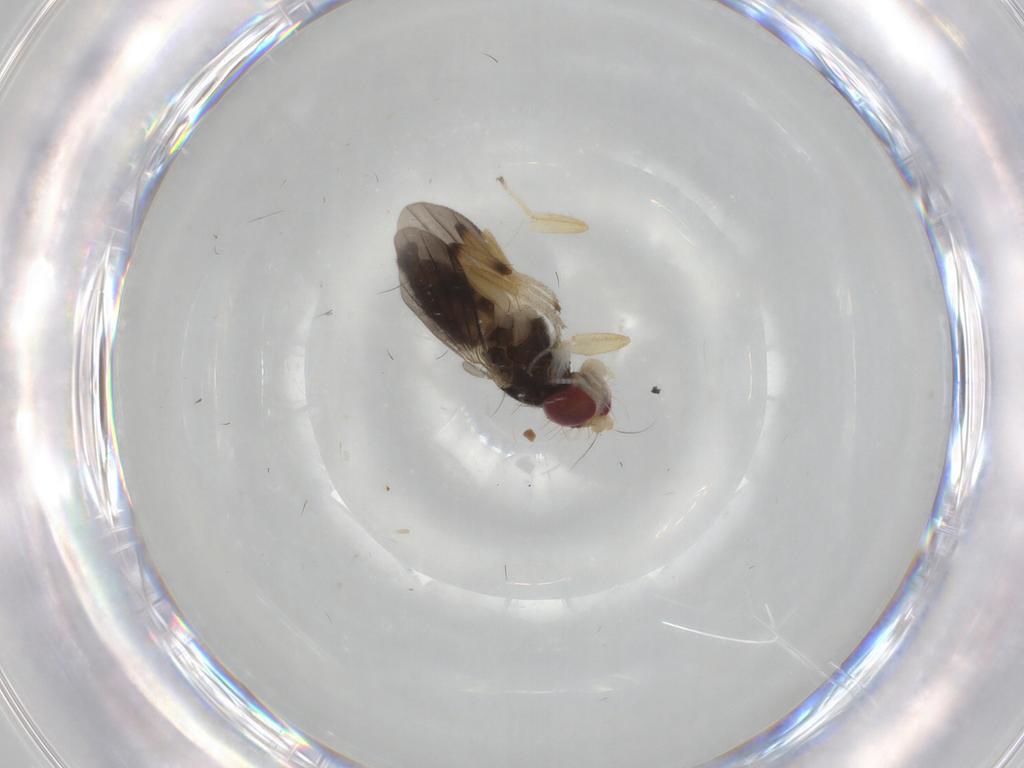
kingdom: Animalia
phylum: Arthropoda
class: Insecta
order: Diptera
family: Clusiidae
